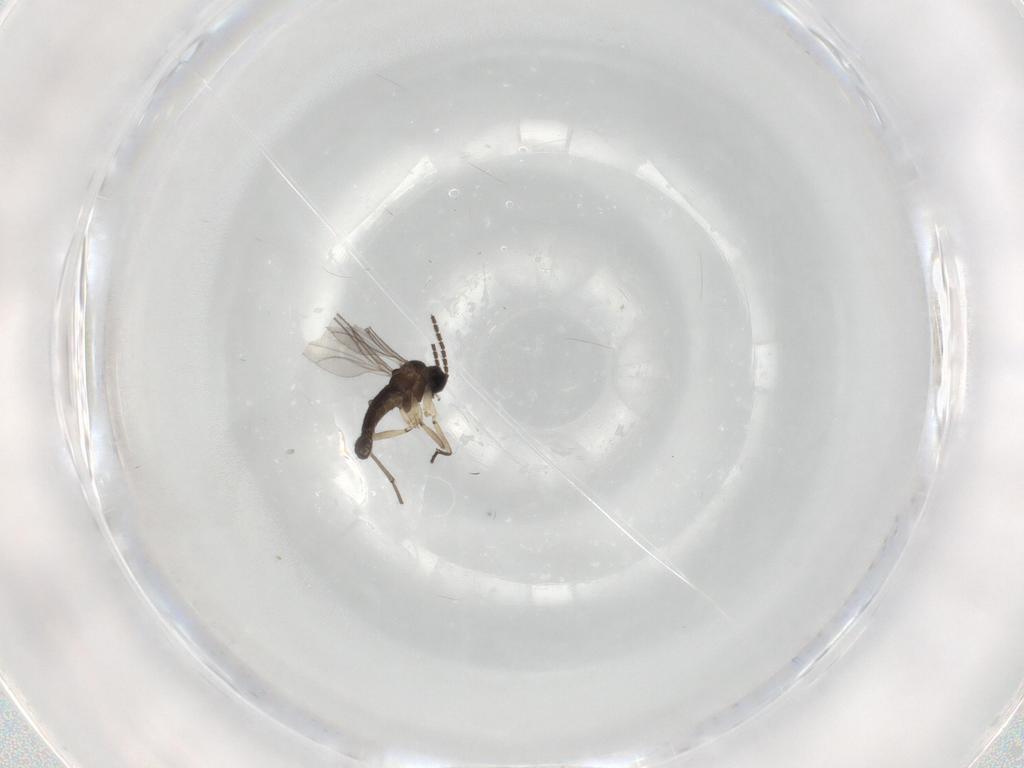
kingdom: Animalia
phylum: Arthropoda
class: Insecta
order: Diptera
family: Sciaridae
